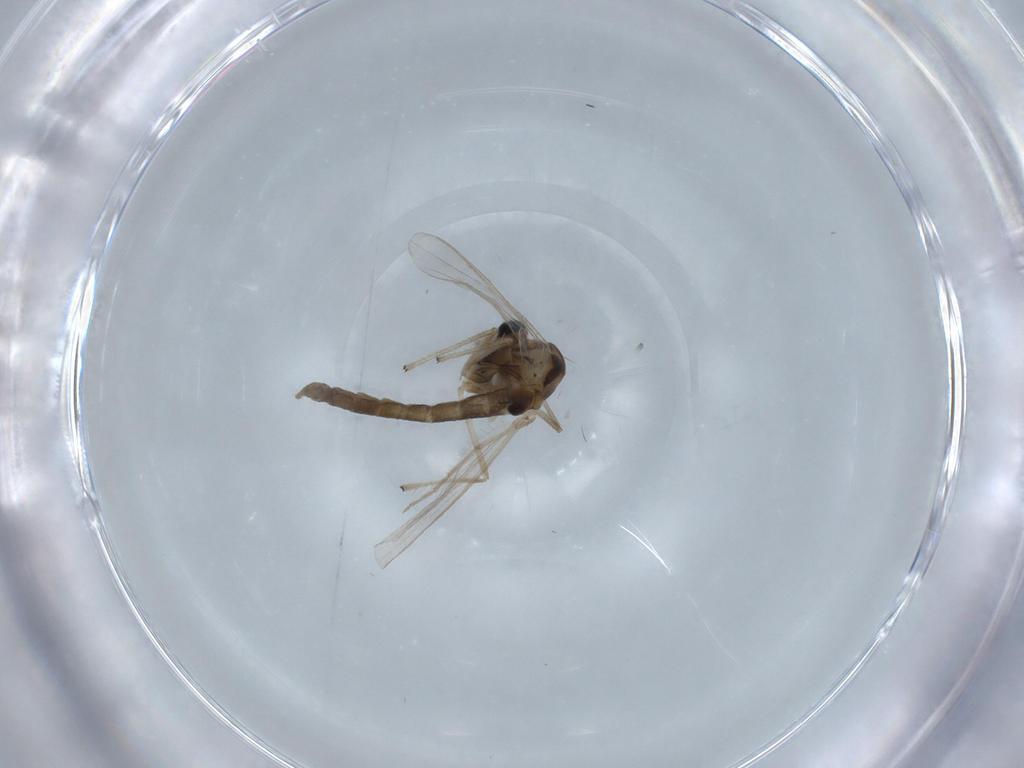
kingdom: Animalia
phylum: Arthropoda
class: Insecta
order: Diptera
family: Chironomidae
